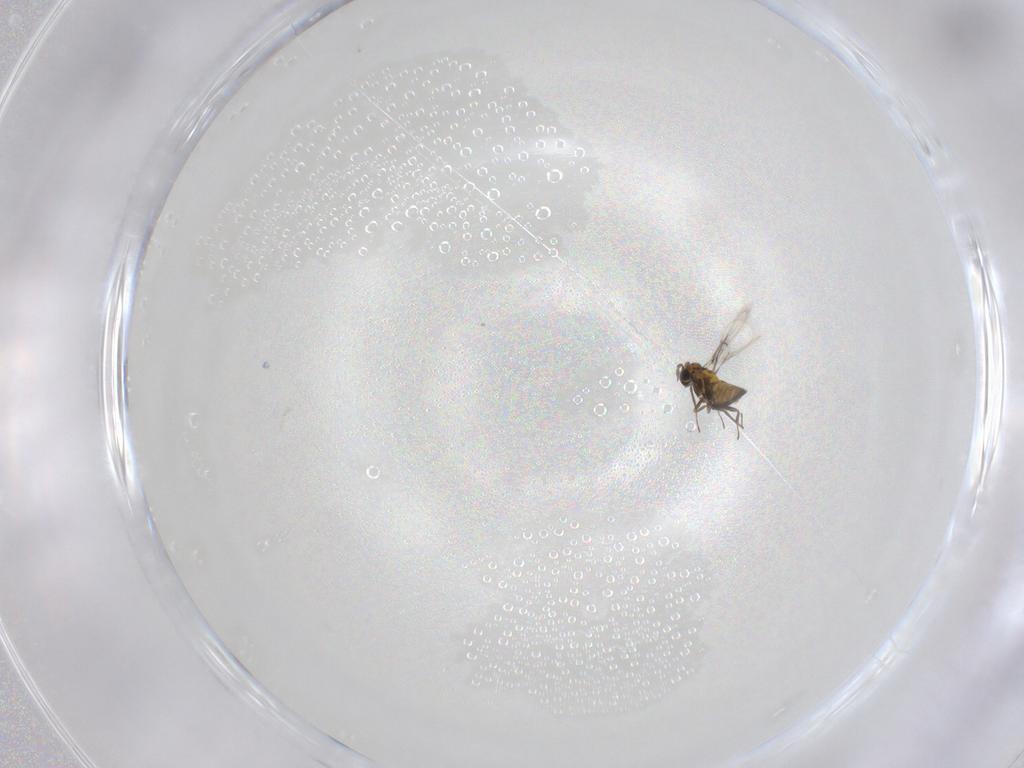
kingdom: Animalia
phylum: Arthropoda
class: Insecta
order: Hymenoptera
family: Trichogrammatidae
